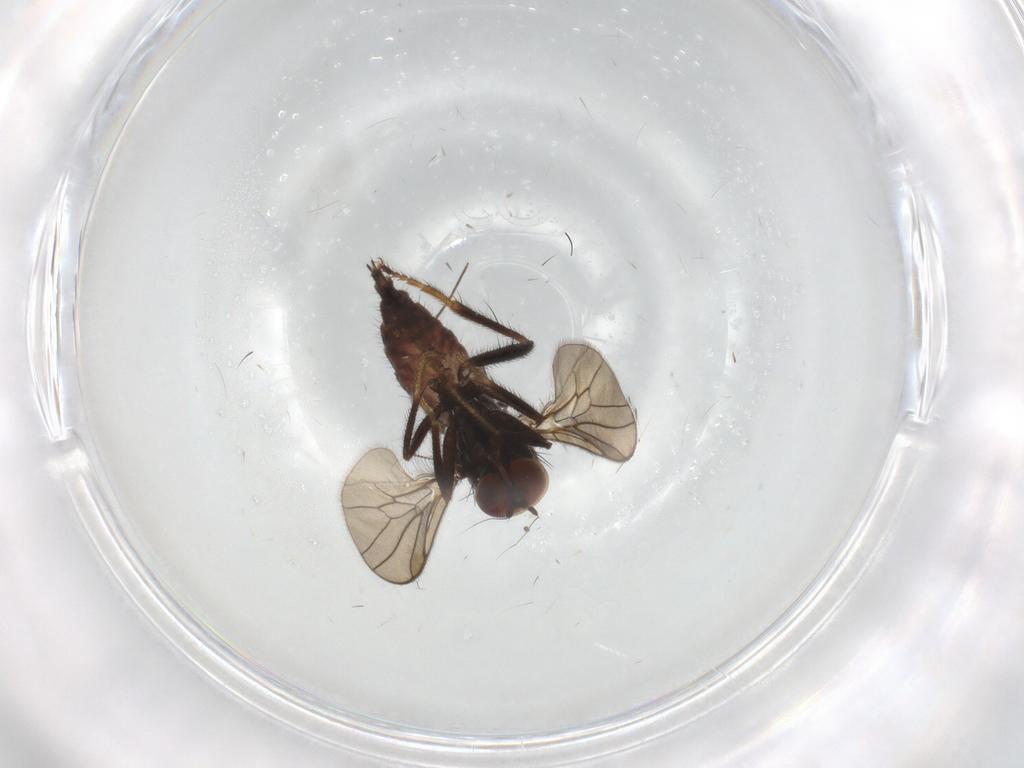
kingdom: Animalia
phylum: Arthropoda
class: Insecta
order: Diptera
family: Hybotidae
